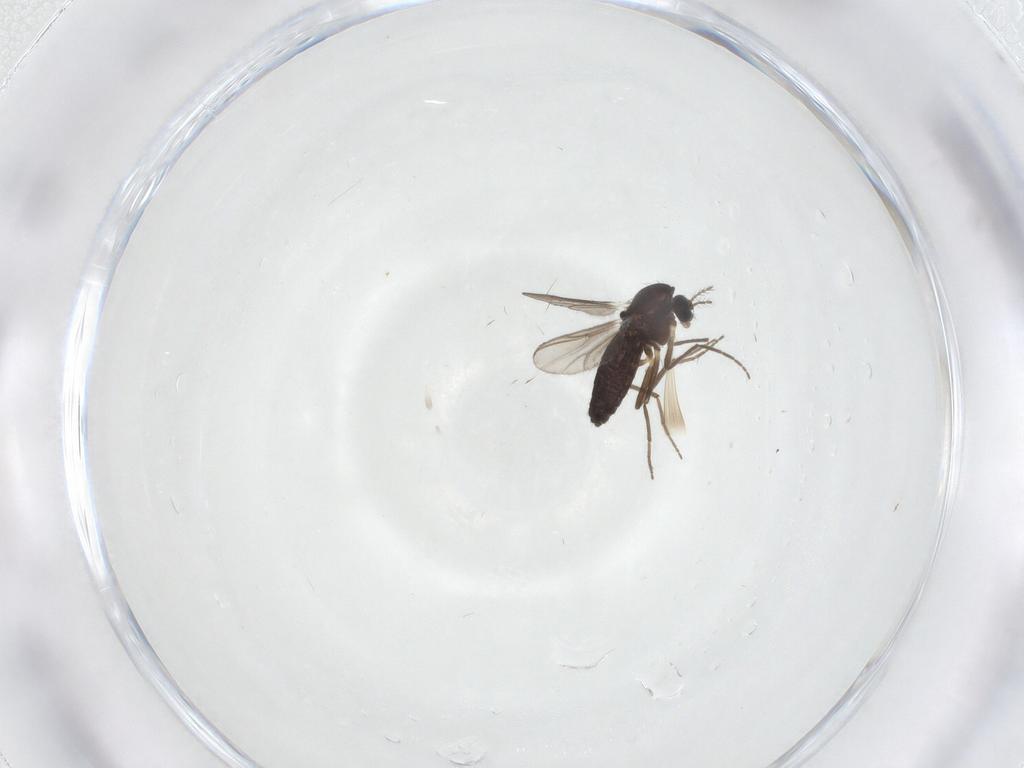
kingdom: Animalia
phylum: Arthropoda
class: Insecta
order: Diptera
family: Chironomidae
